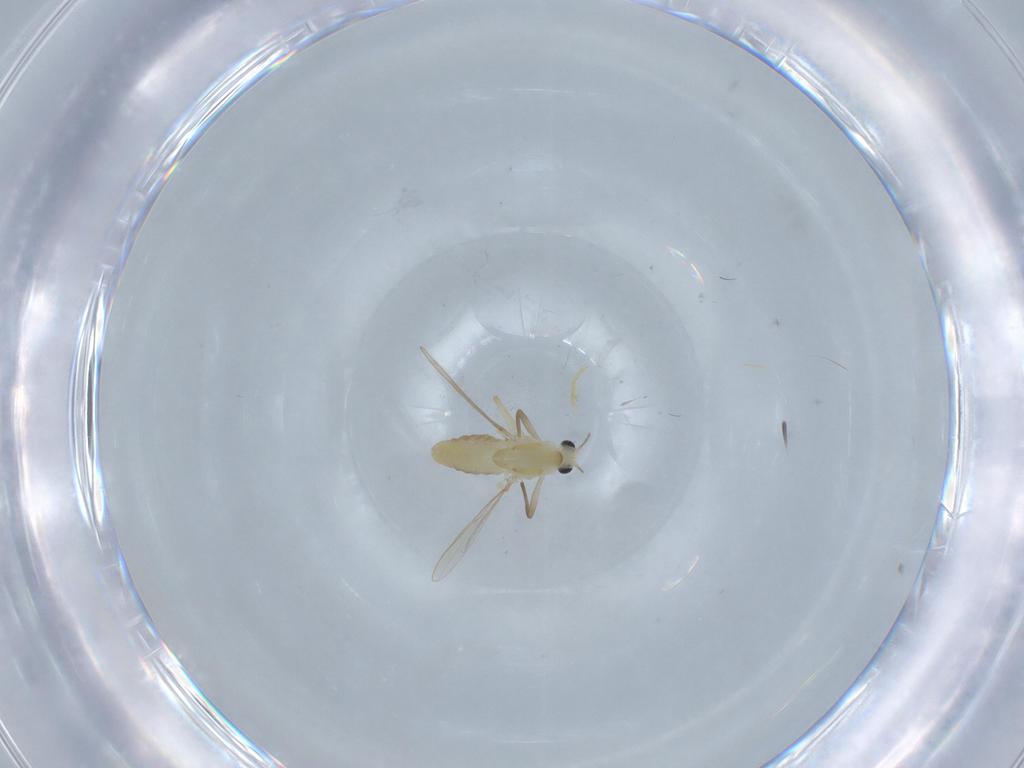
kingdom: Animalia
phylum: Arthropoda
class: Insecta
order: Diptera
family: Chironomidae
